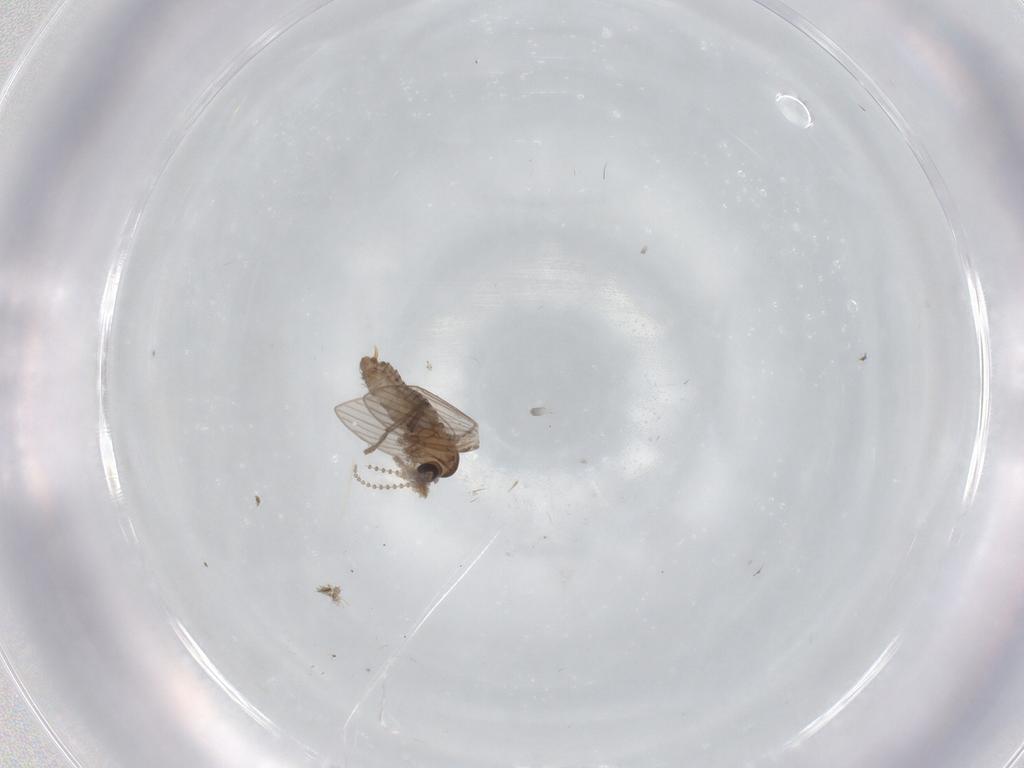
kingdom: Animalia
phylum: Arthropoda
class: Insecta
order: Diptera
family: Psychodidae
